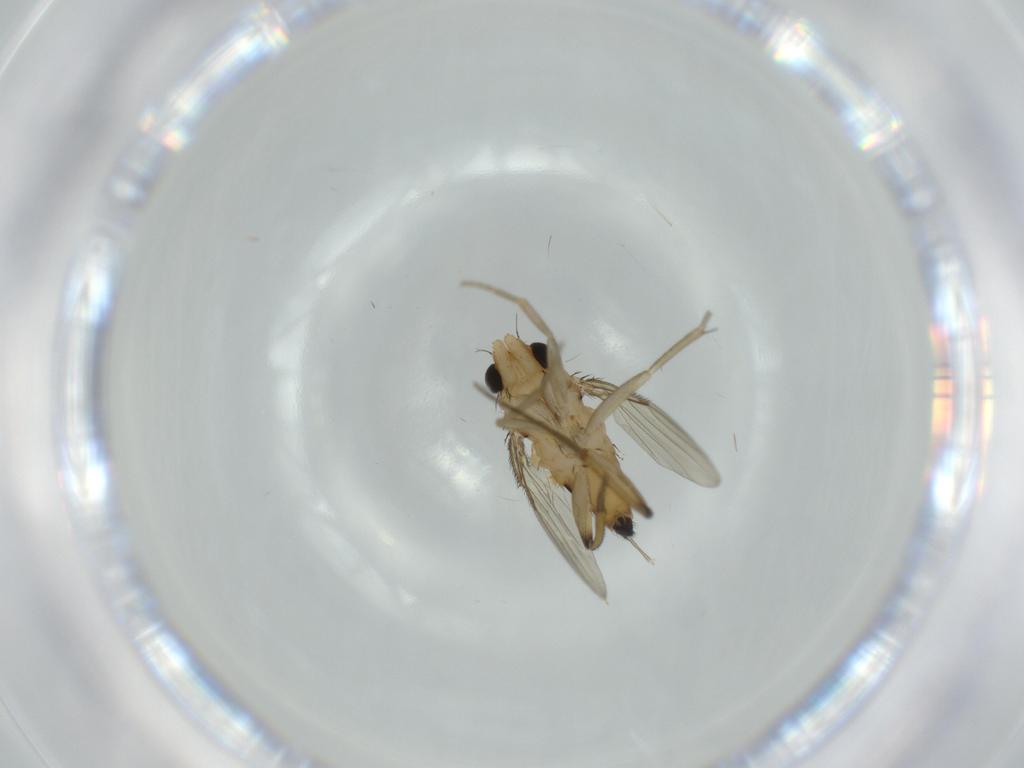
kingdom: Animalia
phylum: Arthropoda
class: Insecta
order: Diptera
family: Phoridae
